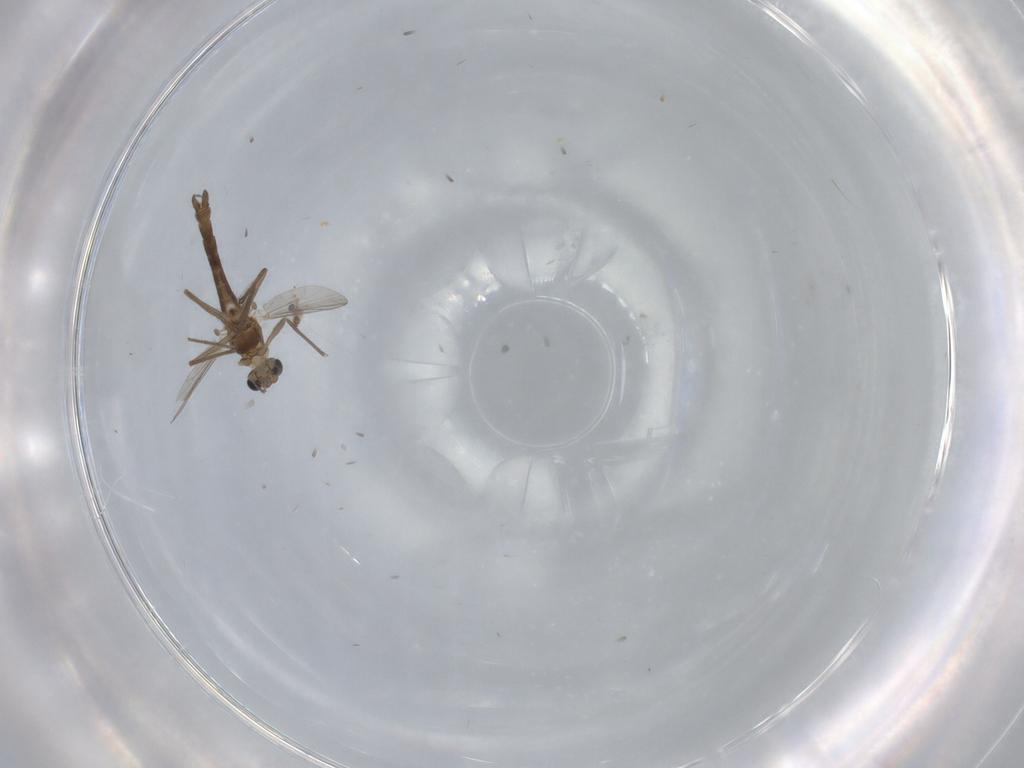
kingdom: Animalia
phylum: Arthropoda
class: Insecta
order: Diptera
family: Chironomidae
